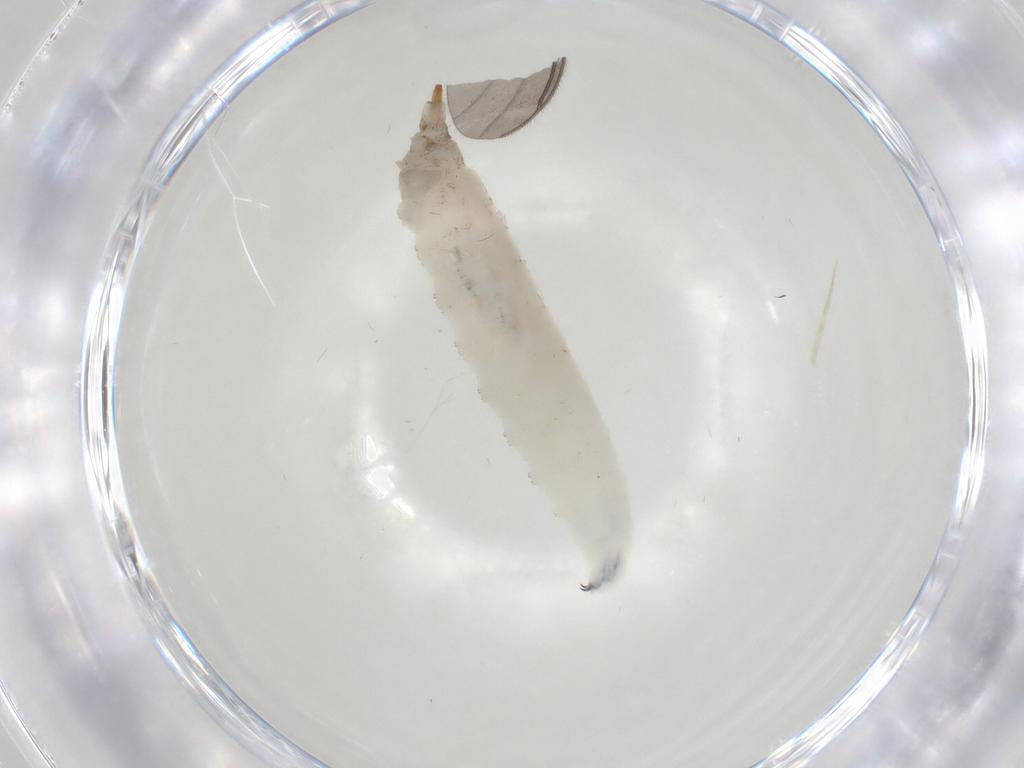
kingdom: Animalia
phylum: Arthropoda
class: Insecta
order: Diptera
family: Drosophilidae
